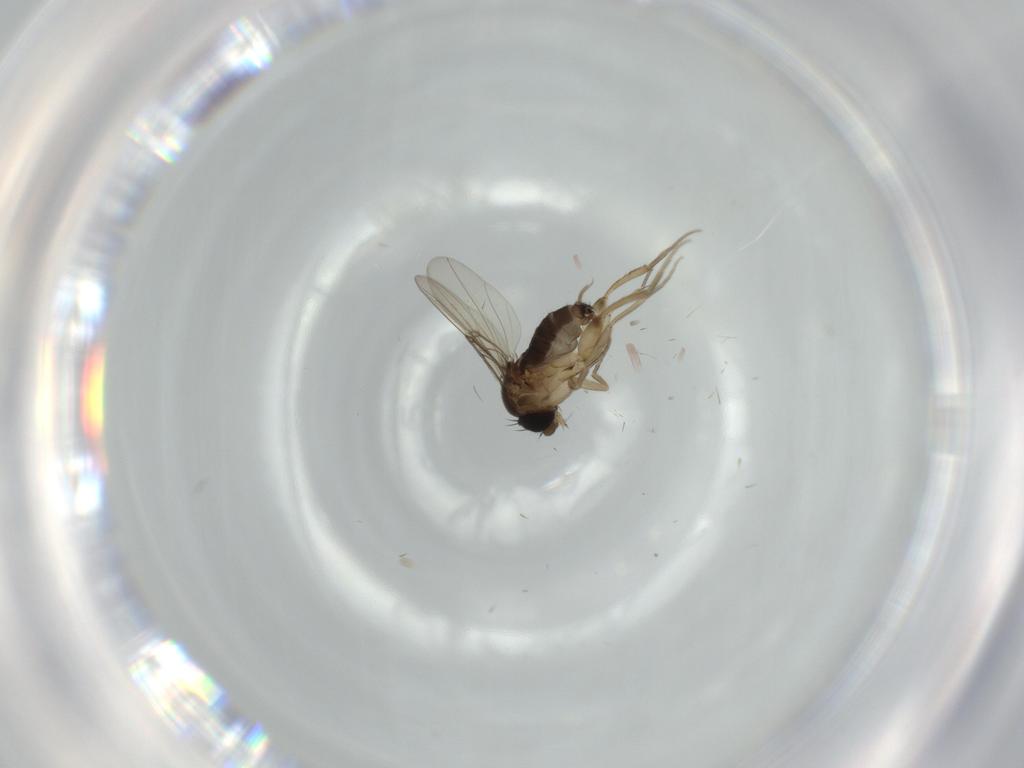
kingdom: Animalia
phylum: Arthropoda
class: Insecta
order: Diptera
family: Phoridae
